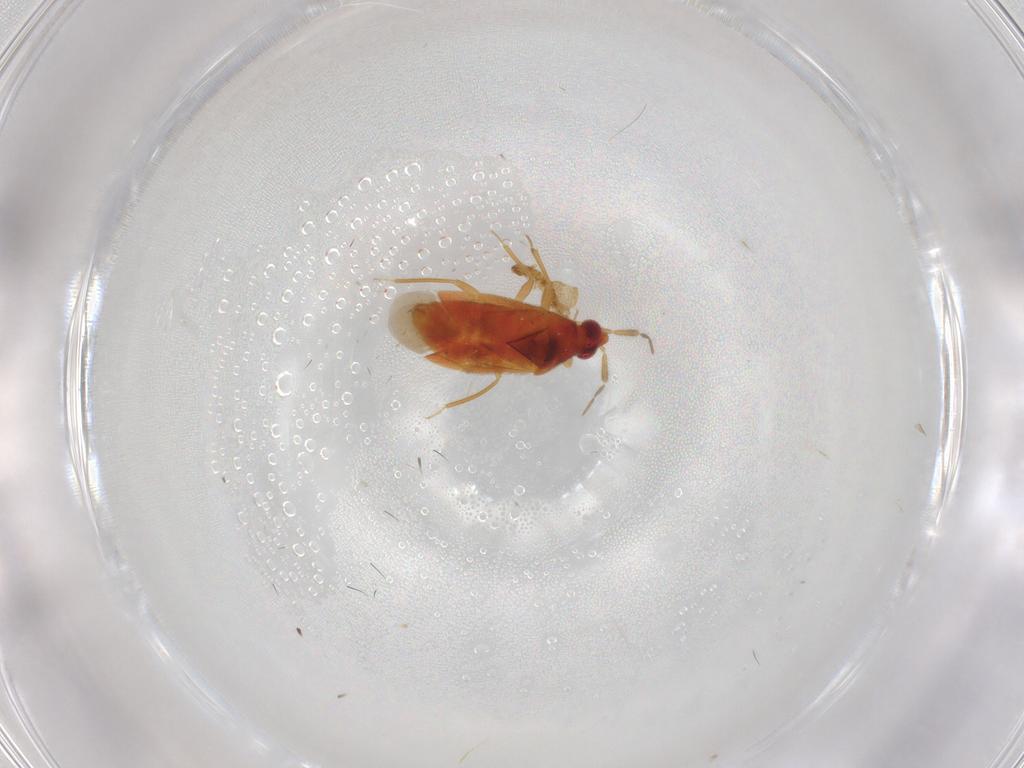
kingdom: Animalia
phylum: Arthropoda
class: Insecta
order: Hemiptera
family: Anthocoridae
